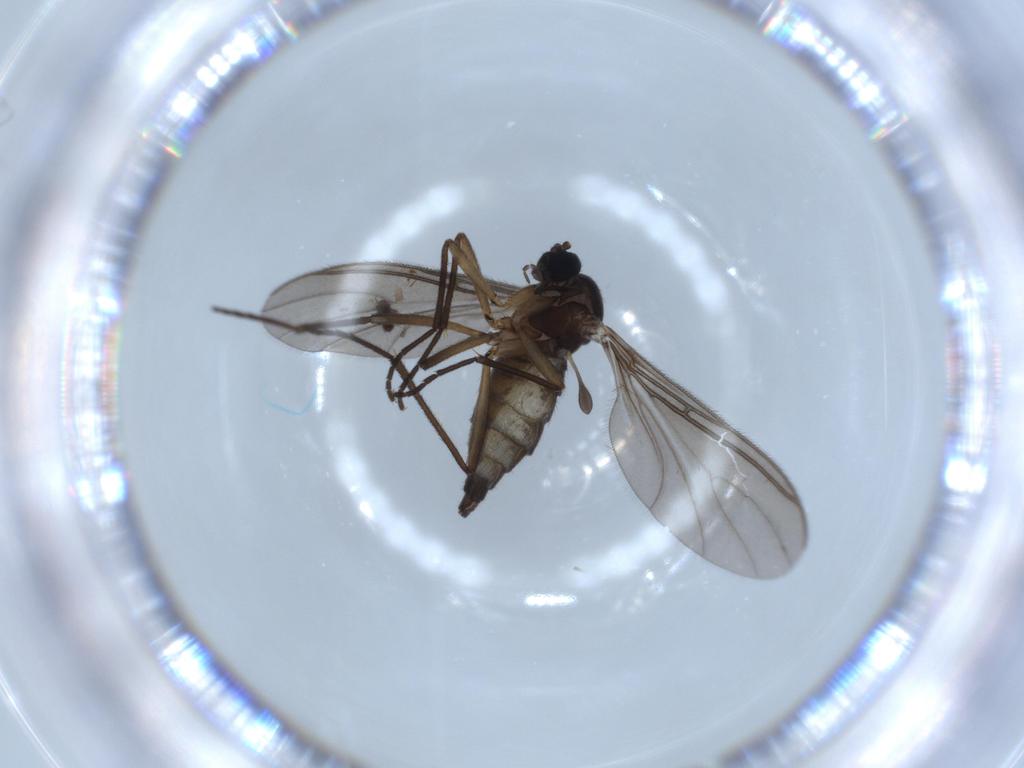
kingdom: Animalia
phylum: Arthropoda
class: Insecta
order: Diptera
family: Sciaridae
